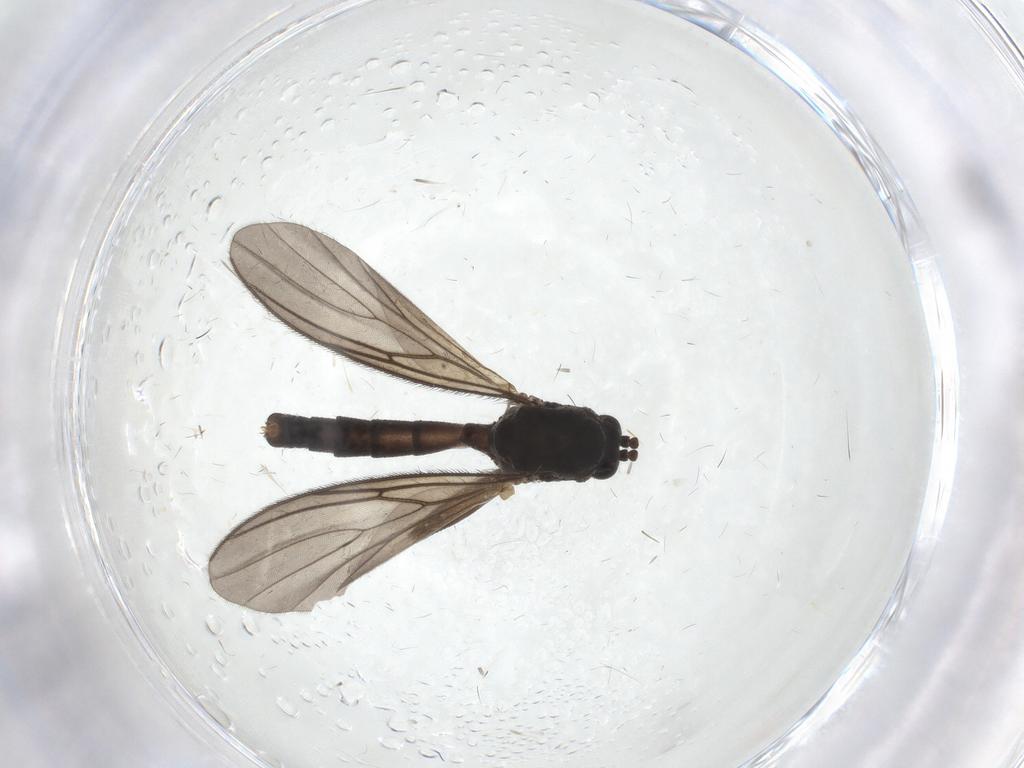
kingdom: Animalia
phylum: Arthropoda
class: Insecta
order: Diptera
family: Mycetophilidae
